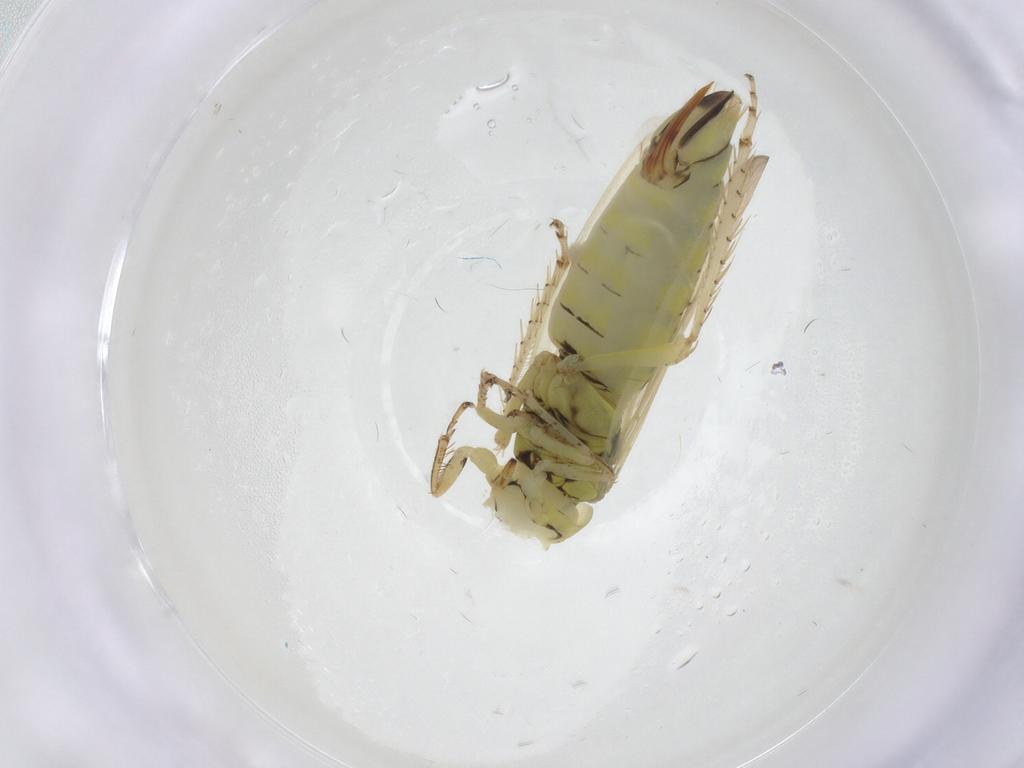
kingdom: Animalia
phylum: Arthropoda
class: Insecta
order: Hemiptera
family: Cicadellidae
